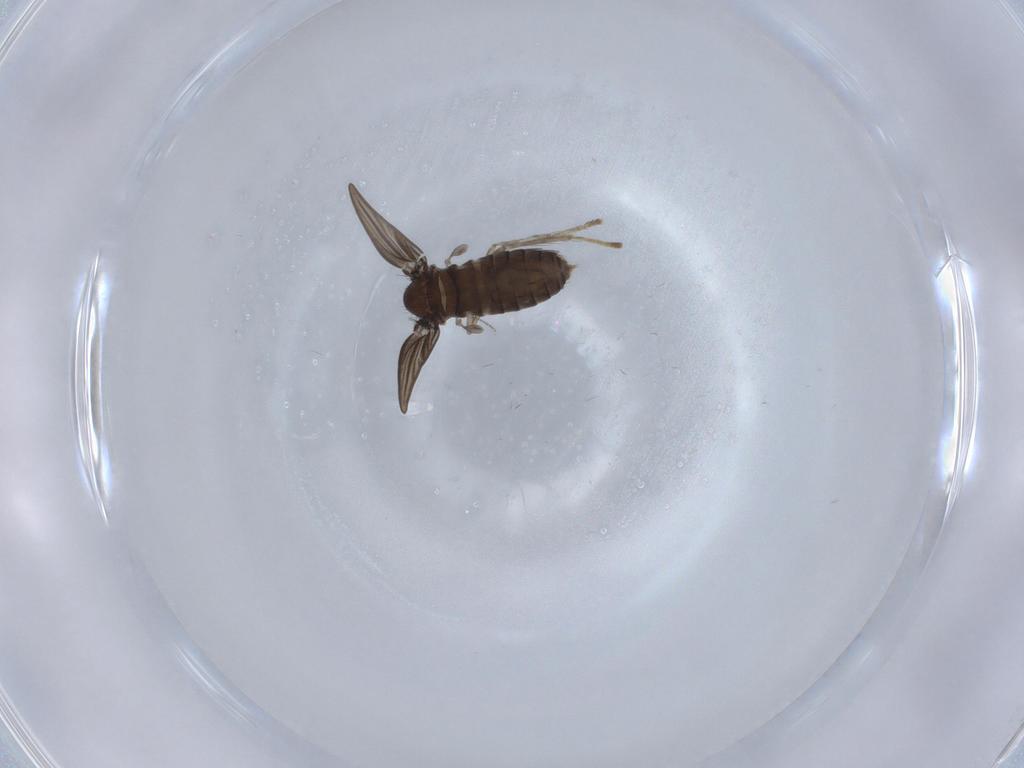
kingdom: Animalia
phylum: Arthropoda
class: Insecta
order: Diptera
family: Psychodidae
